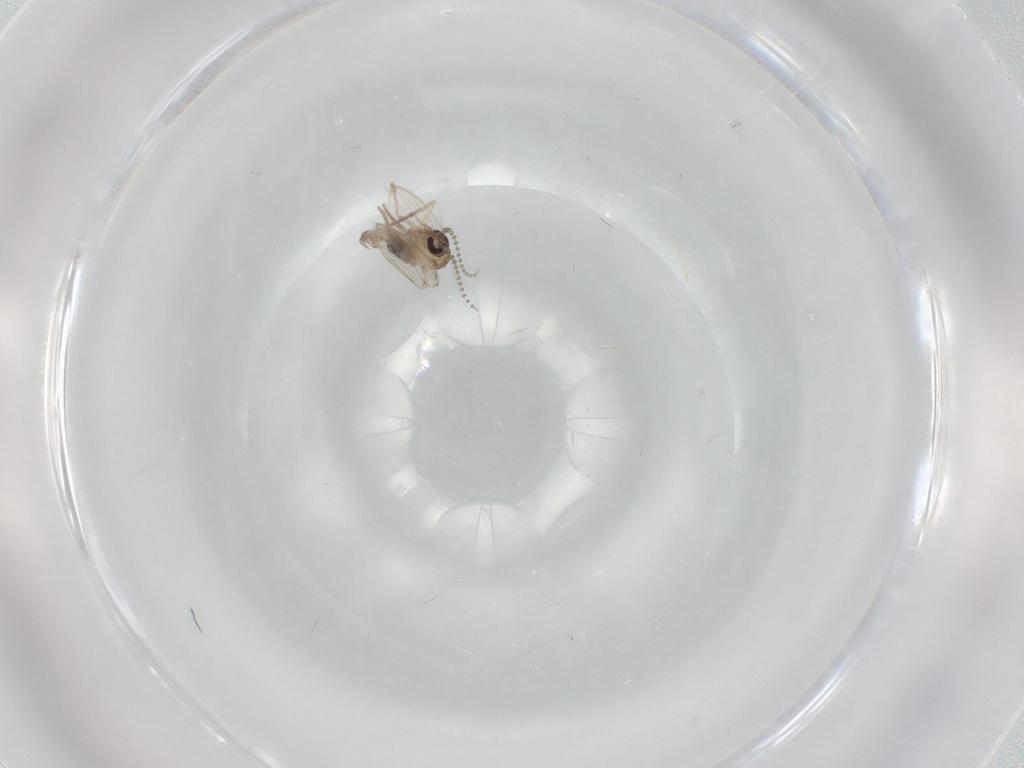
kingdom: Animalia
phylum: Arthropoda
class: Insecta
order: Diptera
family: Psychodidae
